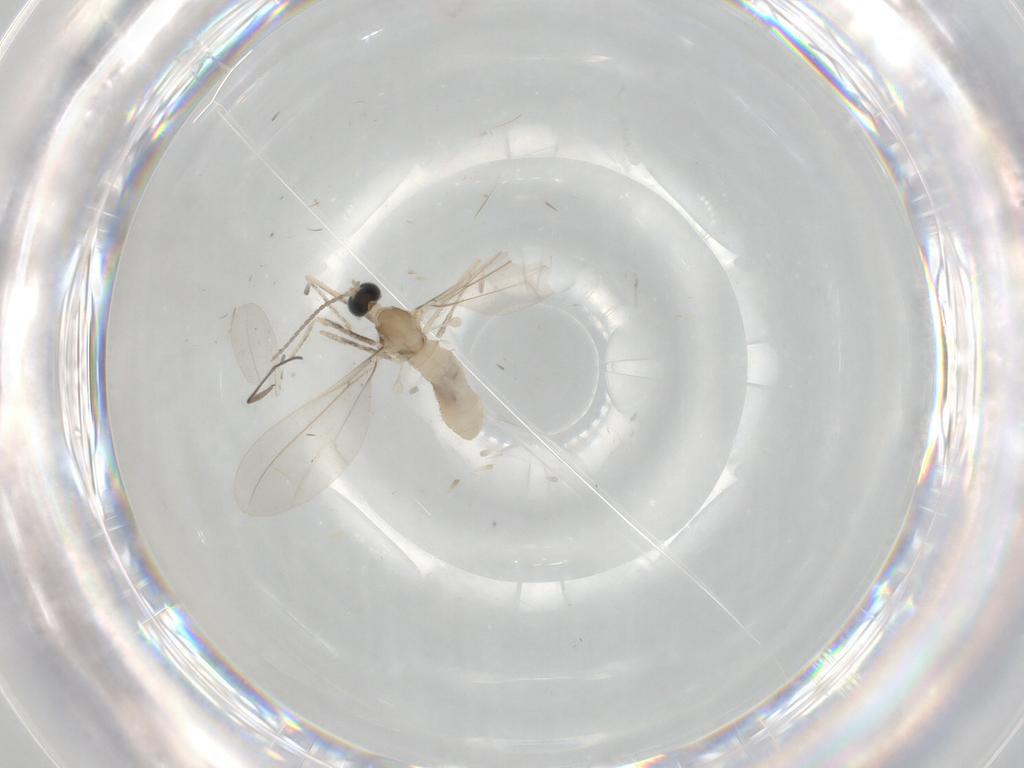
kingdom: Animalia
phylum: Arthropoda
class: Insecta
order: Diptera
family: Cecidomyiidae
